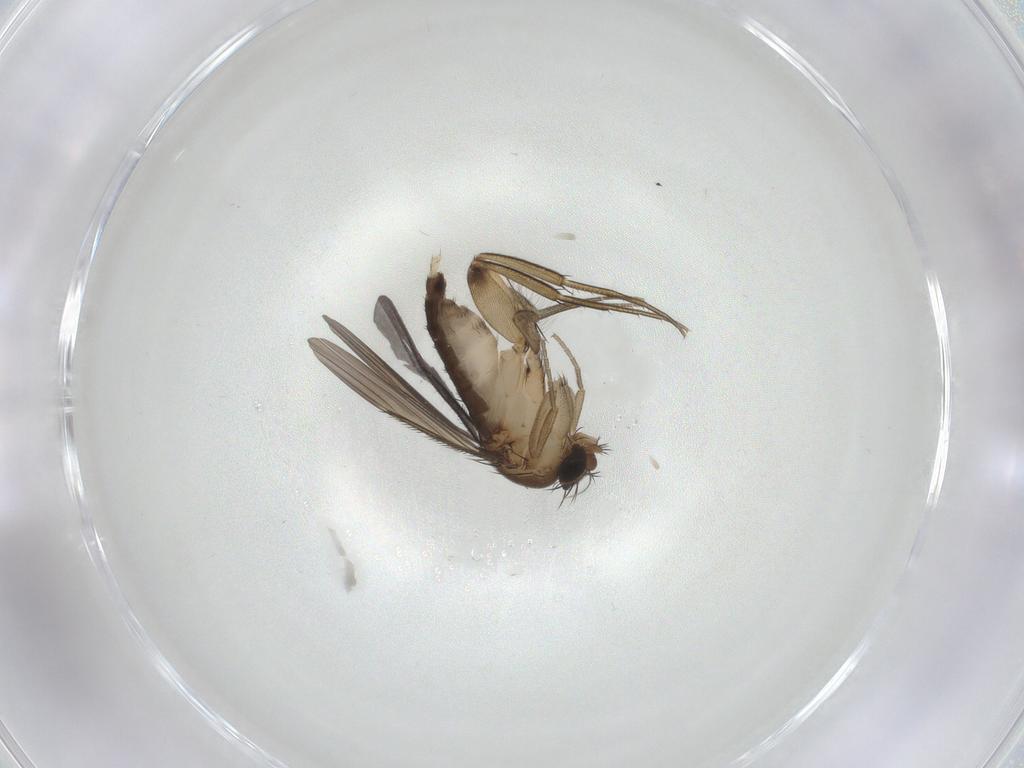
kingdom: Animalia
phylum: Arthropoda
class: Insecta
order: Diptera
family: Phoridae
